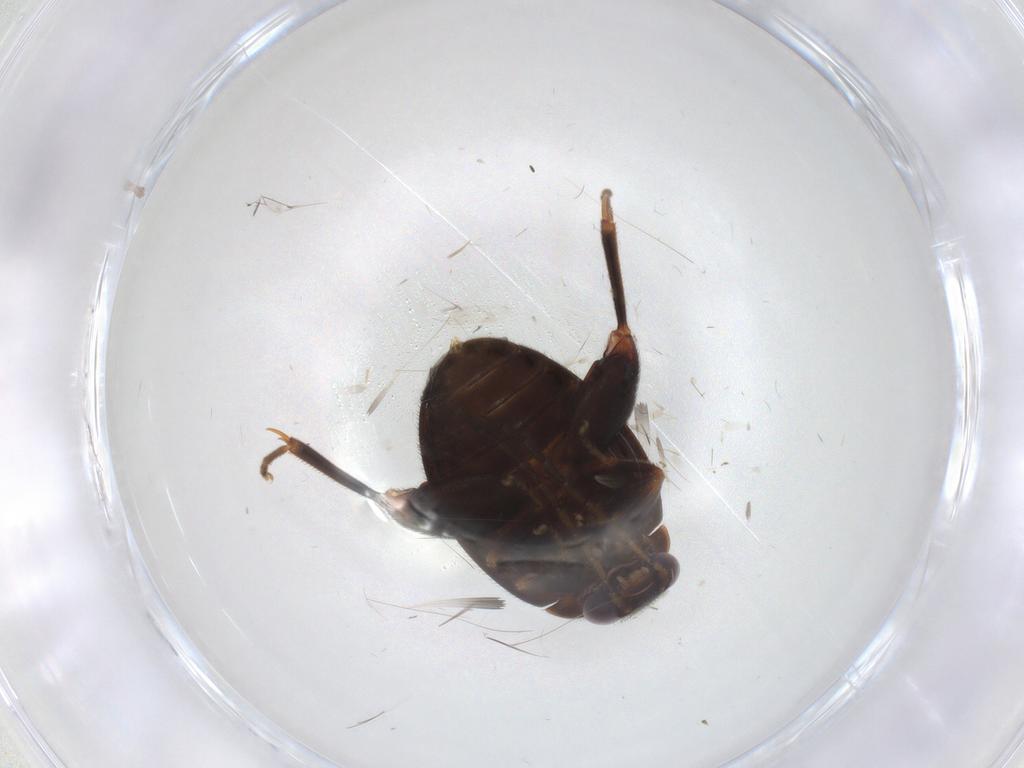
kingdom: Animalia
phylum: Arthropoda
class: Insecta
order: Coleoptera
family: Scirtidae
